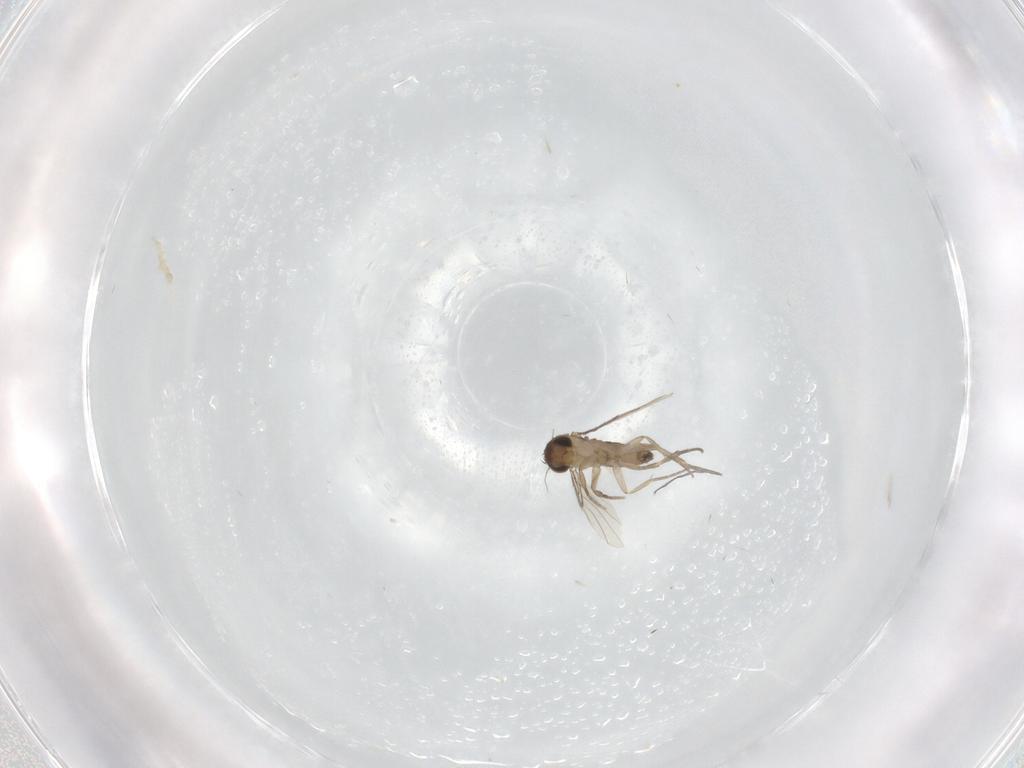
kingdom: Animalia
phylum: Arthropoda
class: Insecta
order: Diptera
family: Phoridae
